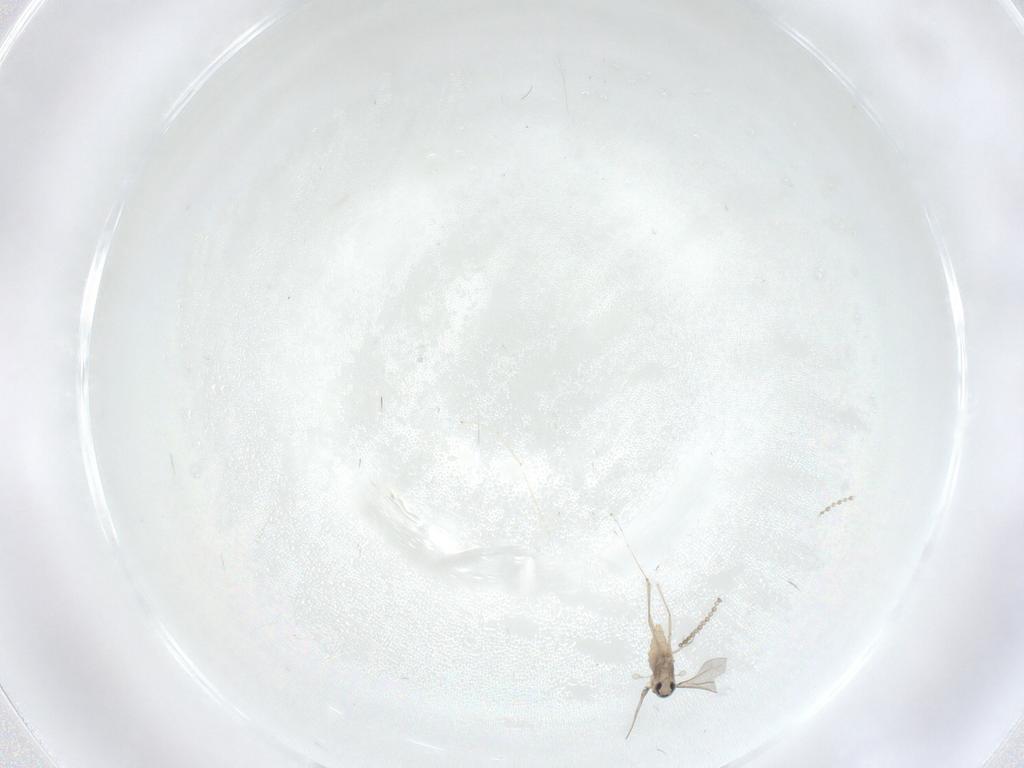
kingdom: Animalia
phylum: Arthropoda
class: Insecta
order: Diptera
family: Cecidomyiidae
